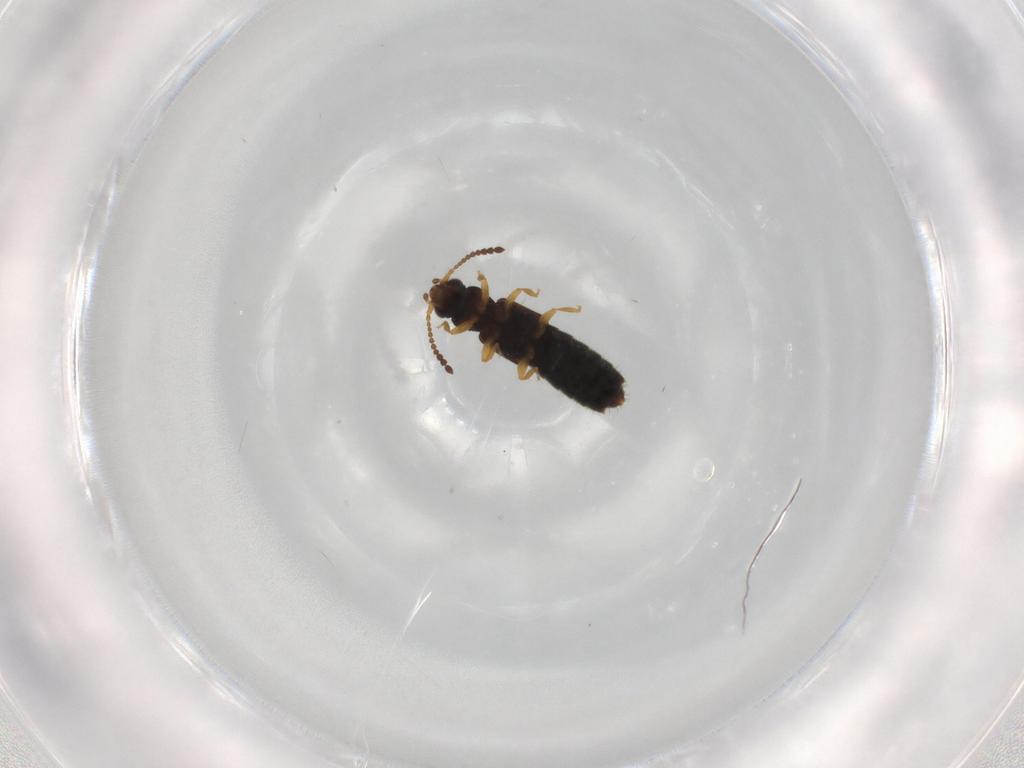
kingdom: Animalia
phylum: Arthropoda
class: Insecta
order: Coleoptera
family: Staphylinidae
